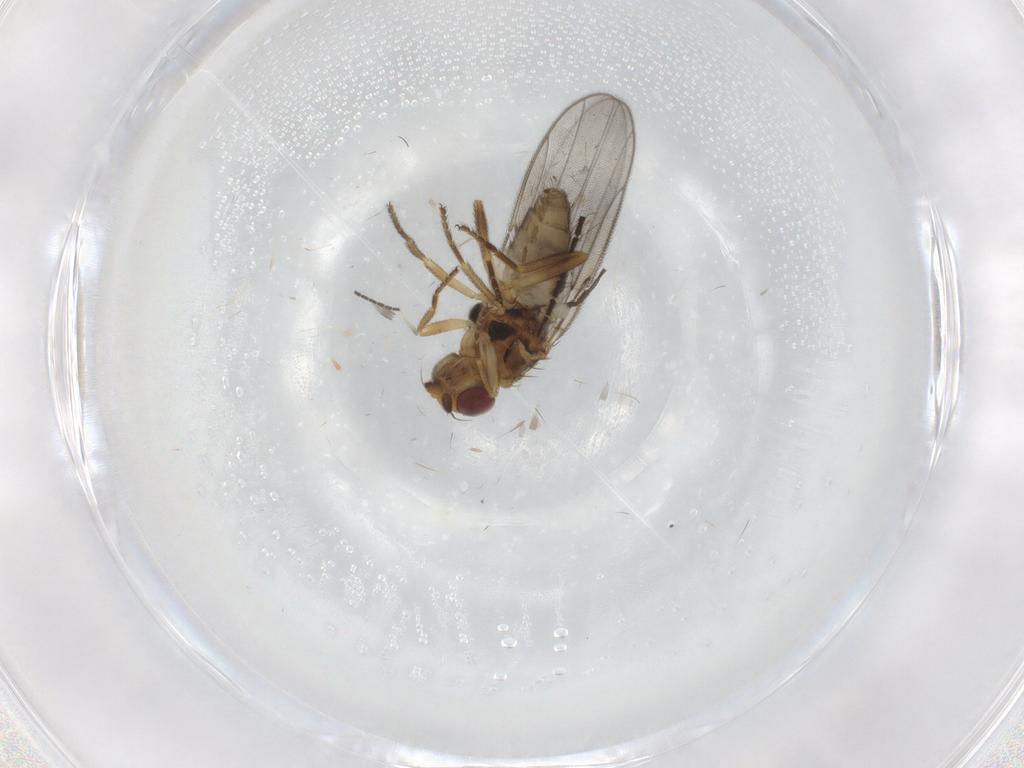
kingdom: Animalia
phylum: Arthropoda
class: Insecta
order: Diptera
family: Chloropidae
